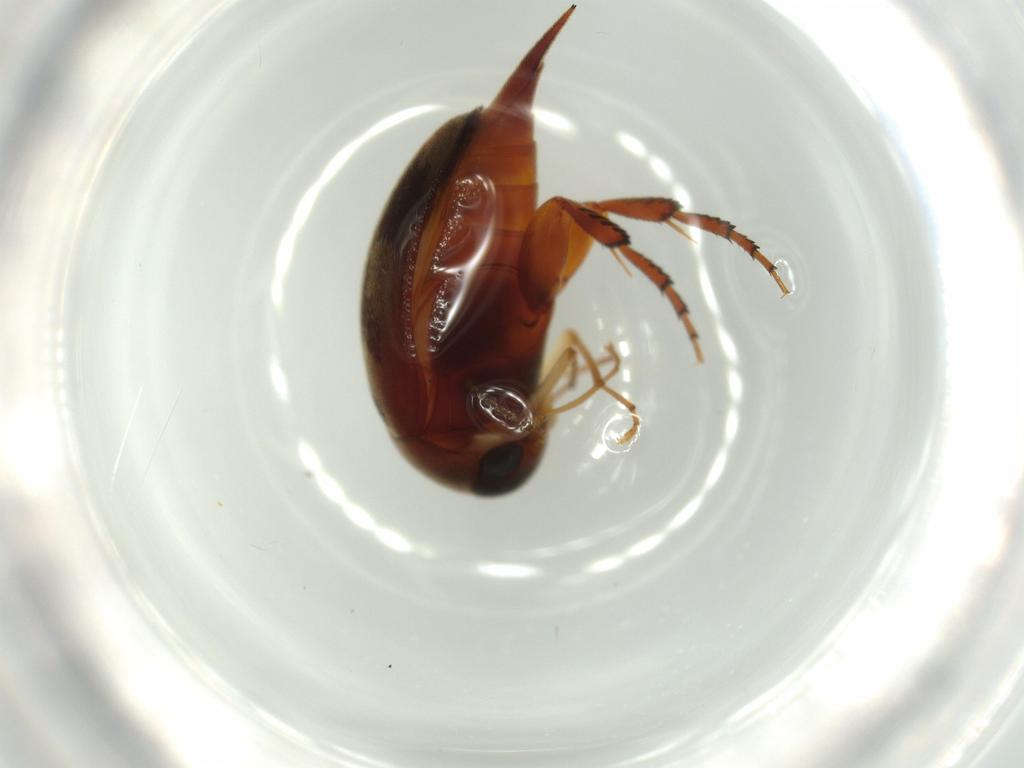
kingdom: Animalia
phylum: Arthropoda
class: Insecta
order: Coleoptera
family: Mordellidae
